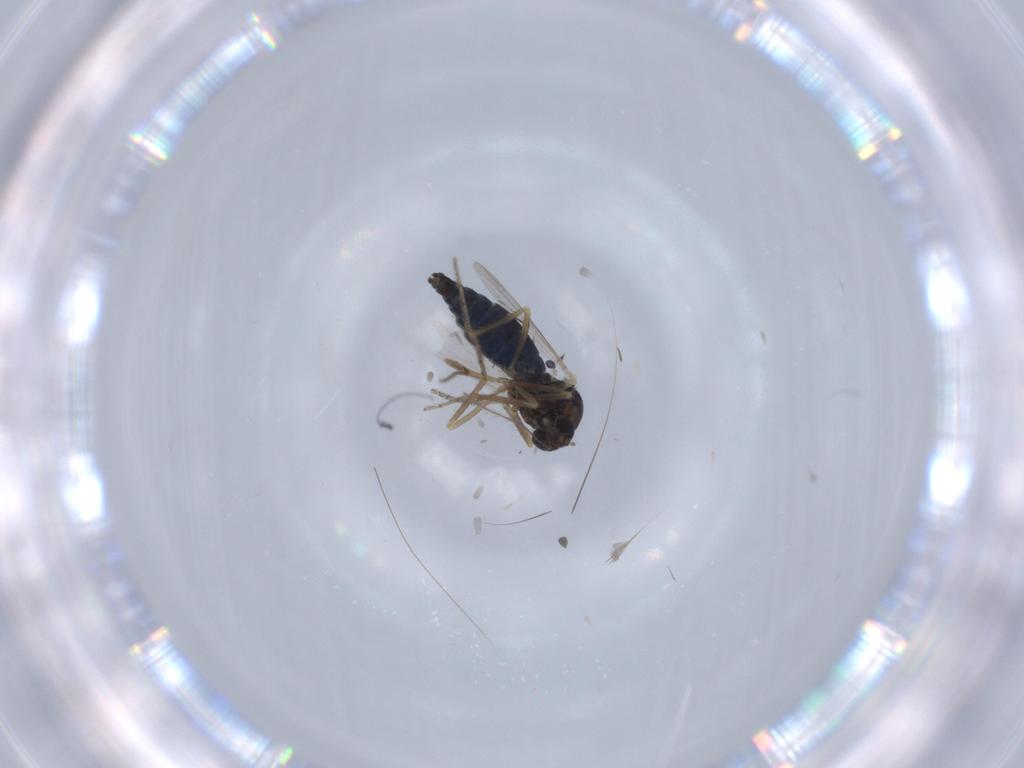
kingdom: Animalia
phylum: Arthropoda
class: Insecta
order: Diptera
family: Ceratopogonidae
